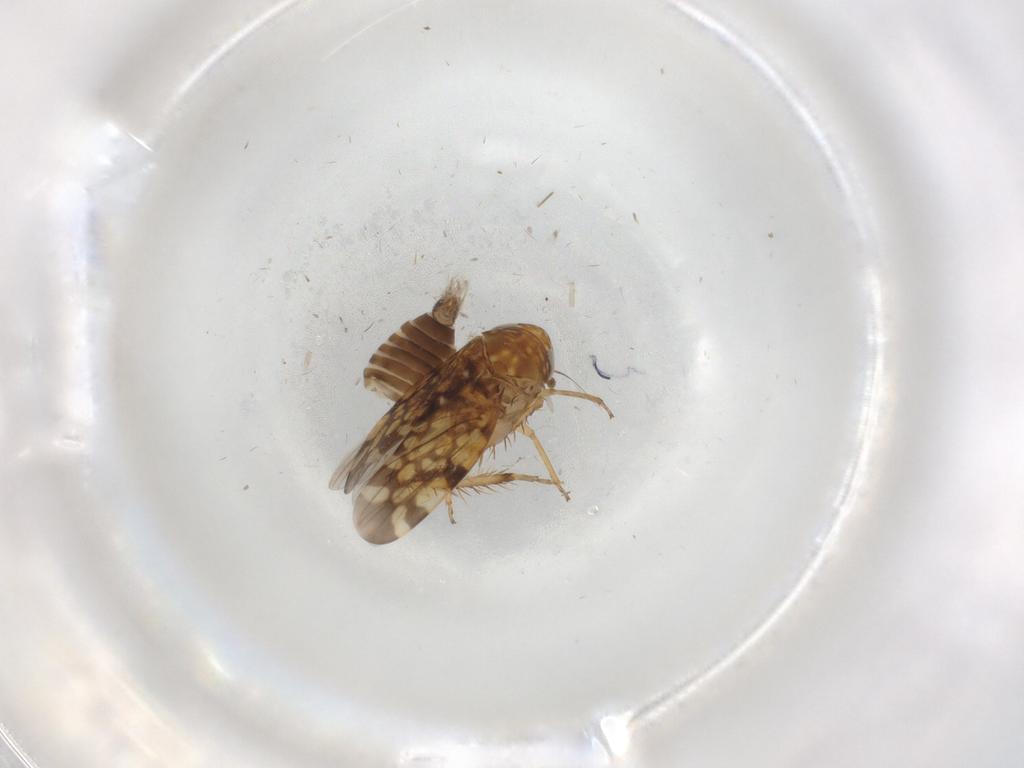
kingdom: Animalia
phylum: Arthropoda
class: Insecta
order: Hemiptera
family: Cicadellidae
